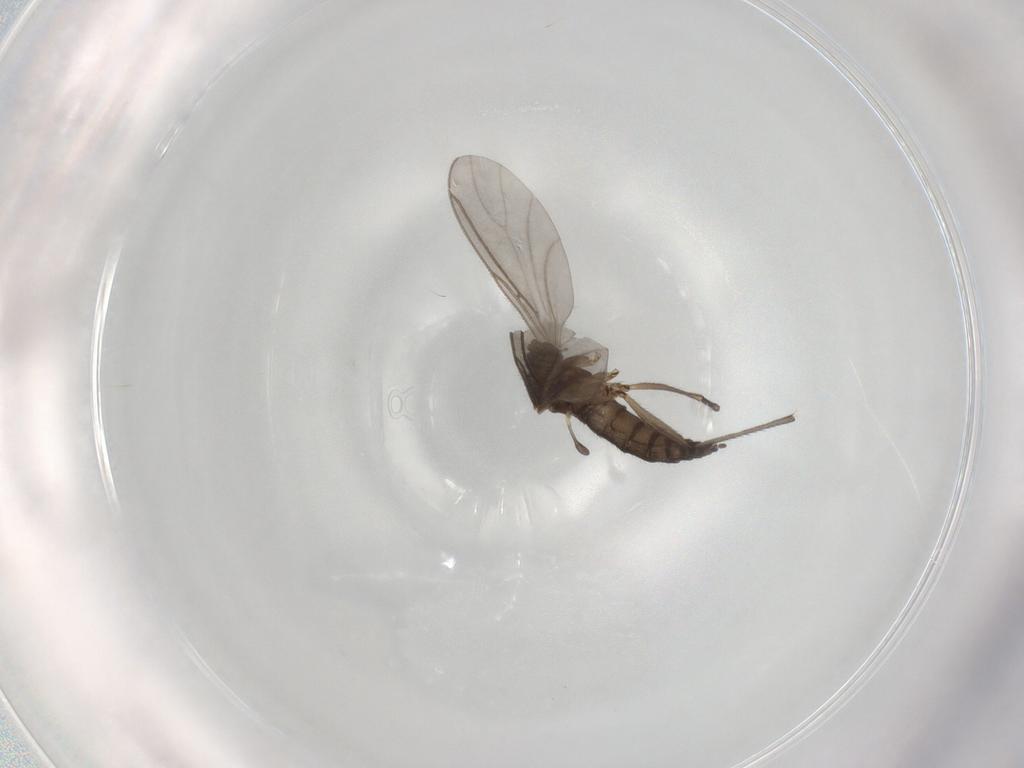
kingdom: Animalia
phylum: Arthropoda
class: Insecta
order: Diptera
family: Sciaridae
